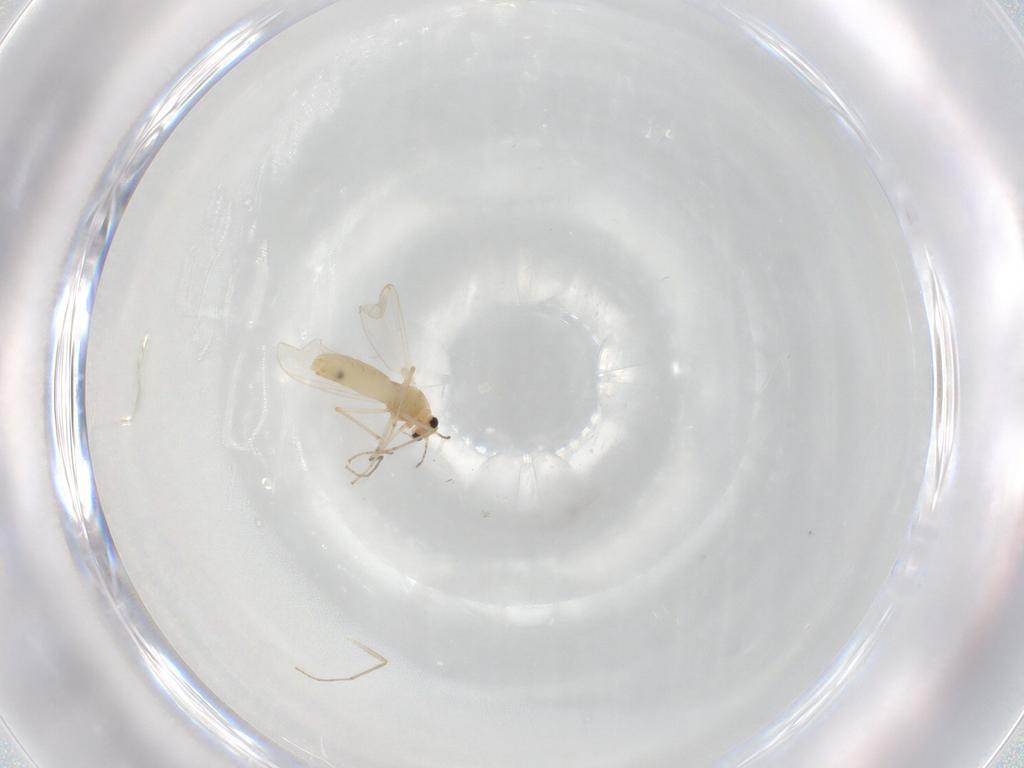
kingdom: Animalia
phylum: Arthropoda
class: Insecta
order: Diptera
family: Chironomidae
